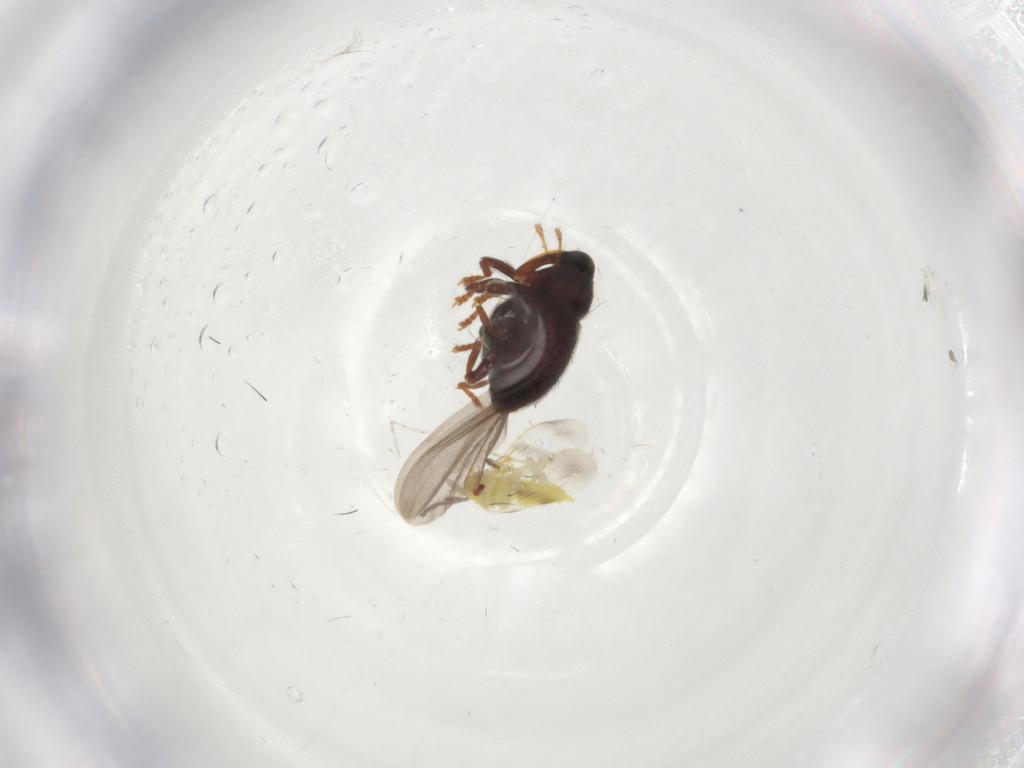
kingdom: Animalia
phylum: Arthropoda
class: Insecta
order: Hemiptera
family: Aleyrodidae
